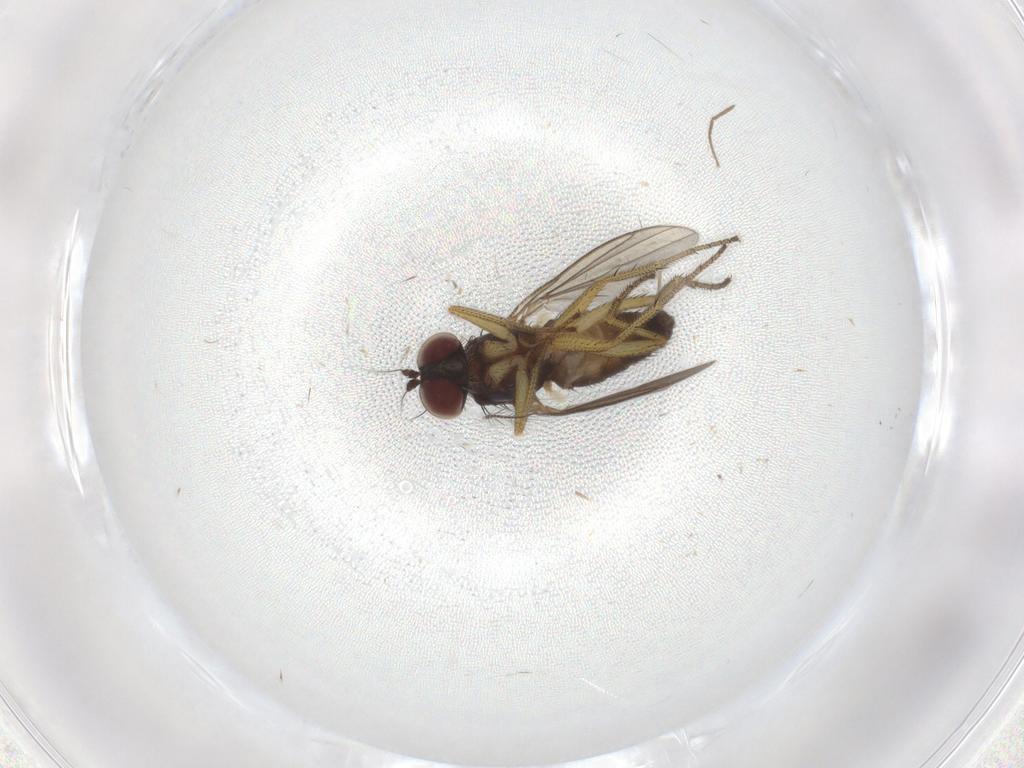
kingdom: Animalia
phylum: Arthropoda
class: Insecta
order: Diptera
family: Dolichopodidae
